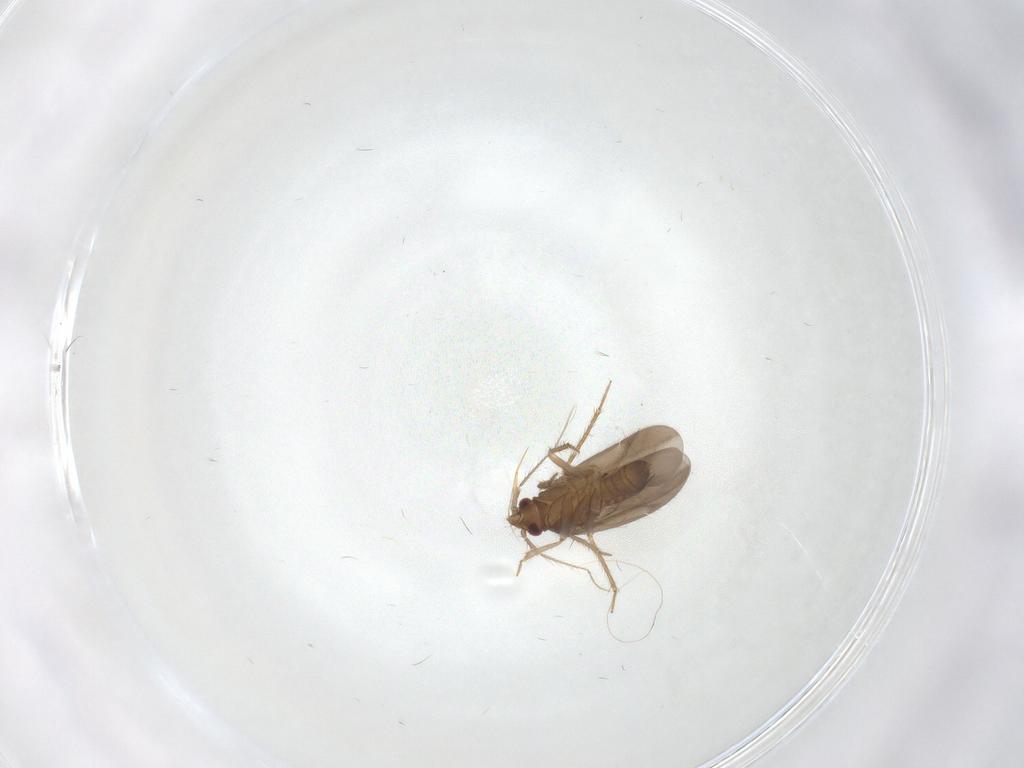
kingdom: Animalia
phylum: Arthropoda
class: Insecta
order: Hemiptera
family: Ceratocombidae
